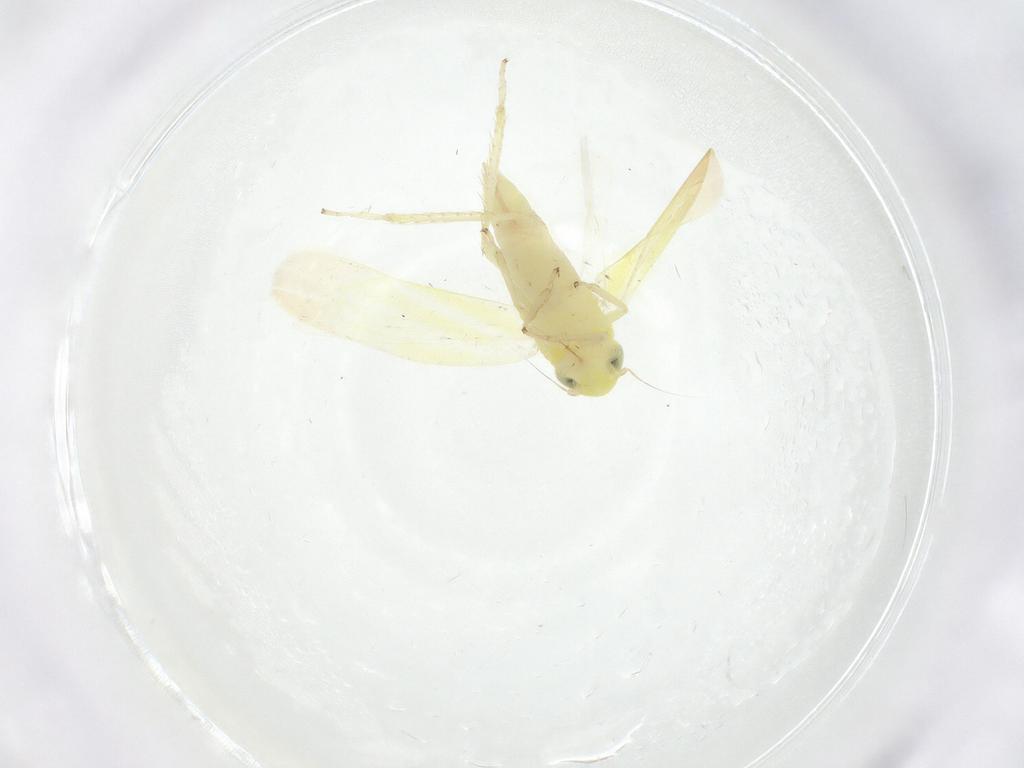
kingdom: Animalia
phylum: Arthropoda
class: Insecta
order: Hemiptera
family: Cicadellidae
